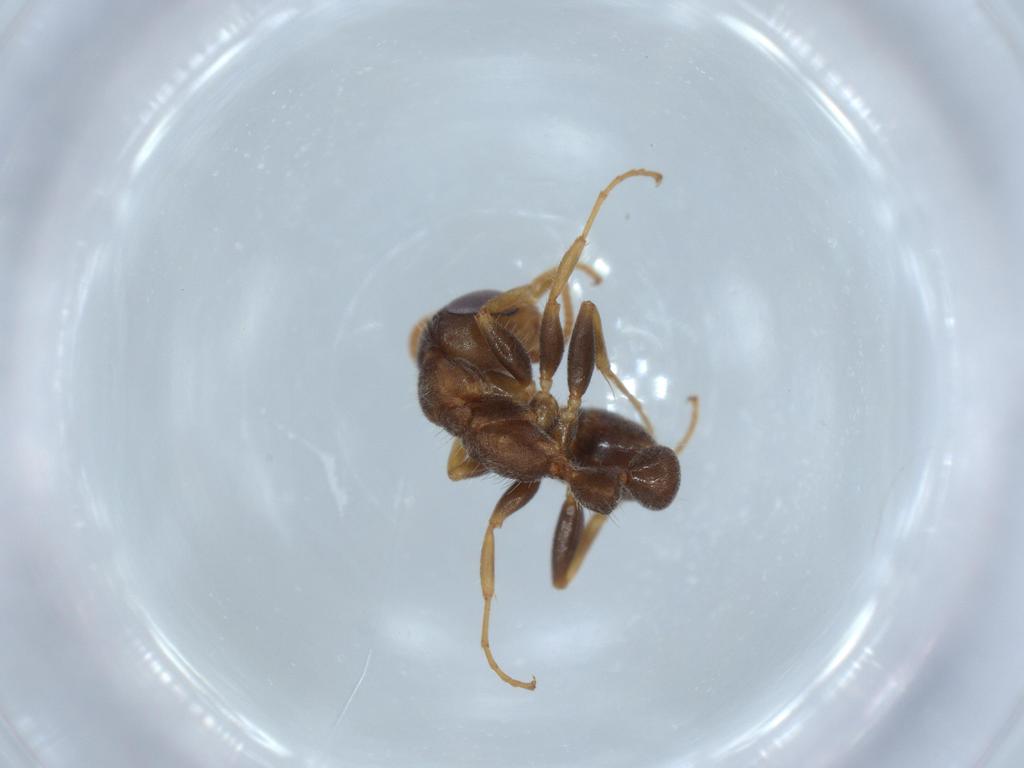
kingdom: Animalia
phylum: Arthropoda
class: Insecta
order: Hymenoptera
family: Formicidae
